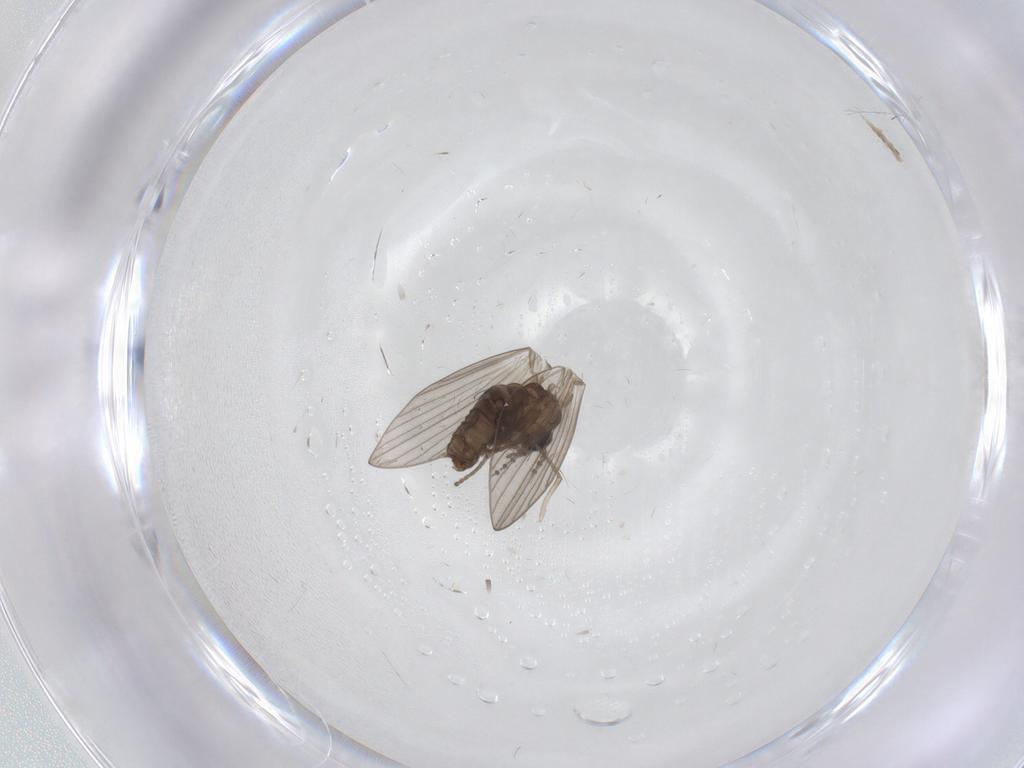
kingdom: Animalia
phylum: Arthropoda
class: Insecta
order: Diptera
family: Psychodidae
